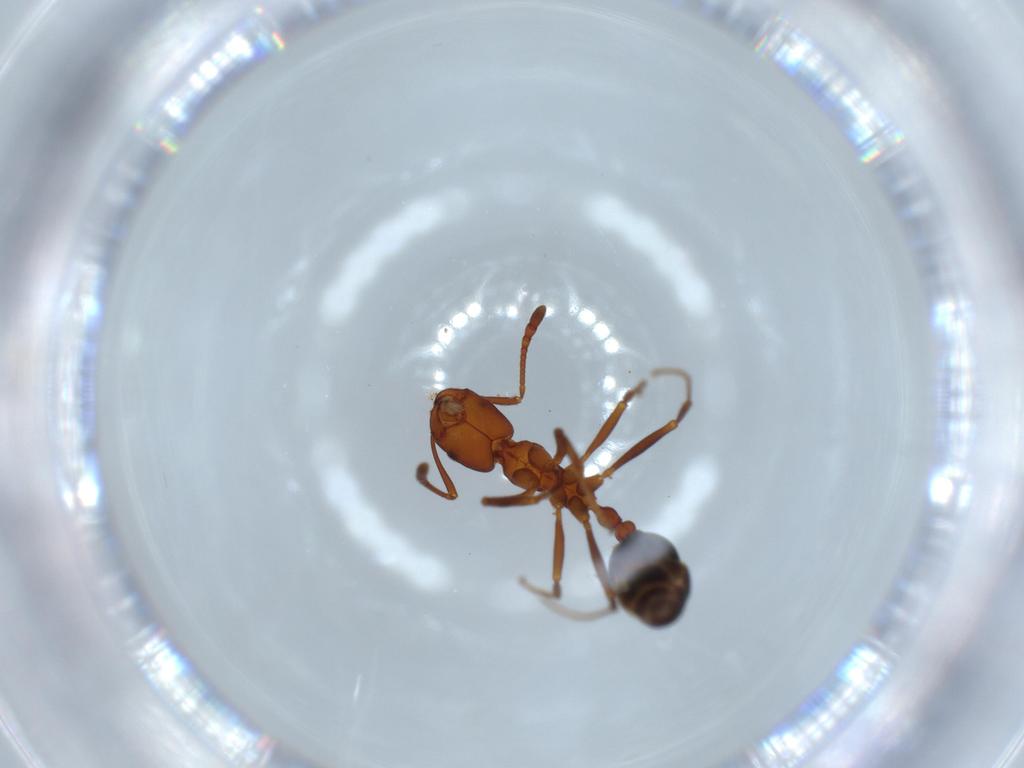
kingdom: Animalia
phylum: Arthropoda
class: Insecta
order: Hymenoptera
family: Formicidae
